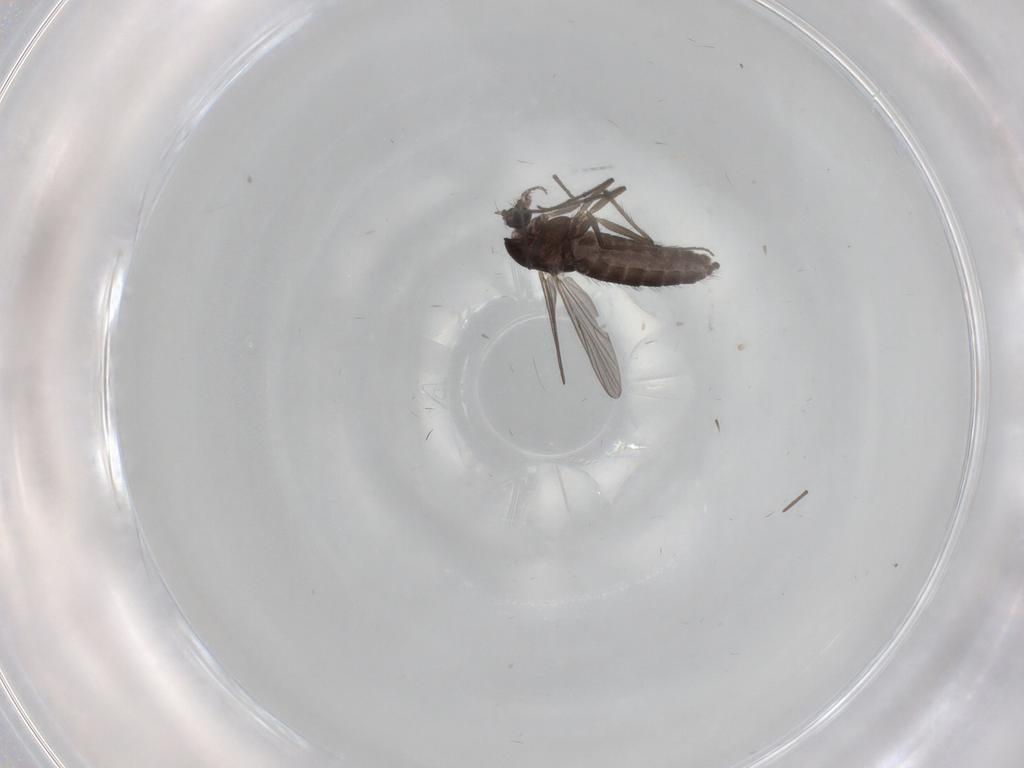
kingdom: Animalia
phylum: Arthropoda
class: Insecta
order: Diptera
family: Chironomidae
